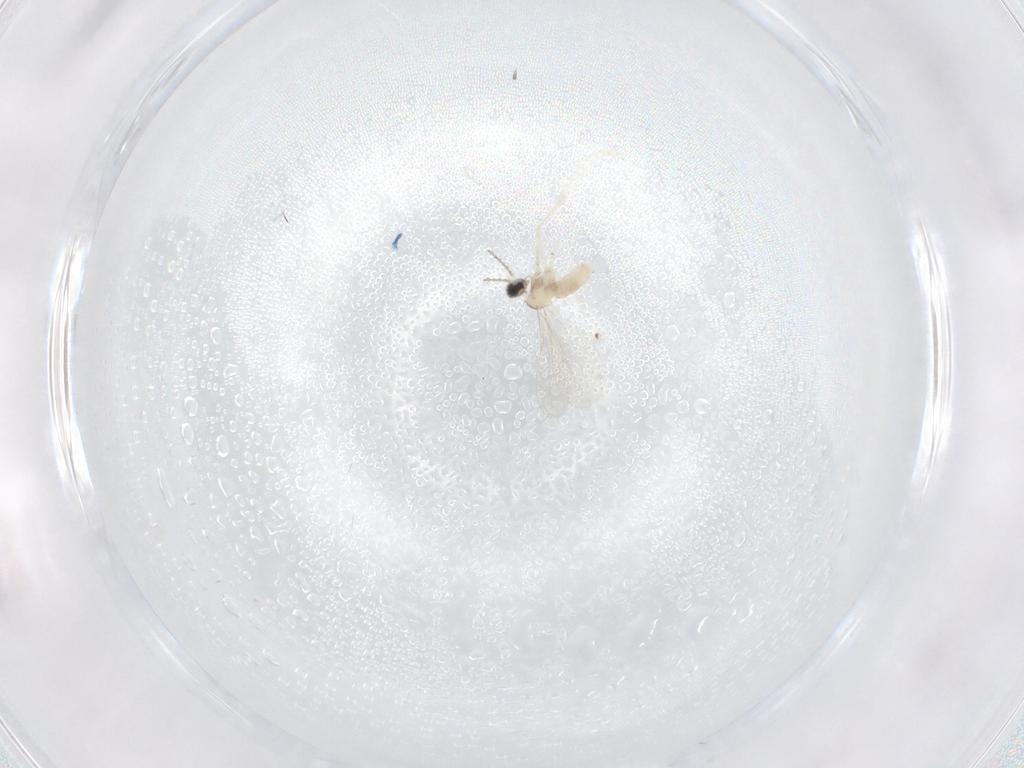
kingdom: Animalia
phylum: Arthropoda
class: Insecta
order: Diptera
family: Cecidomyiidae
